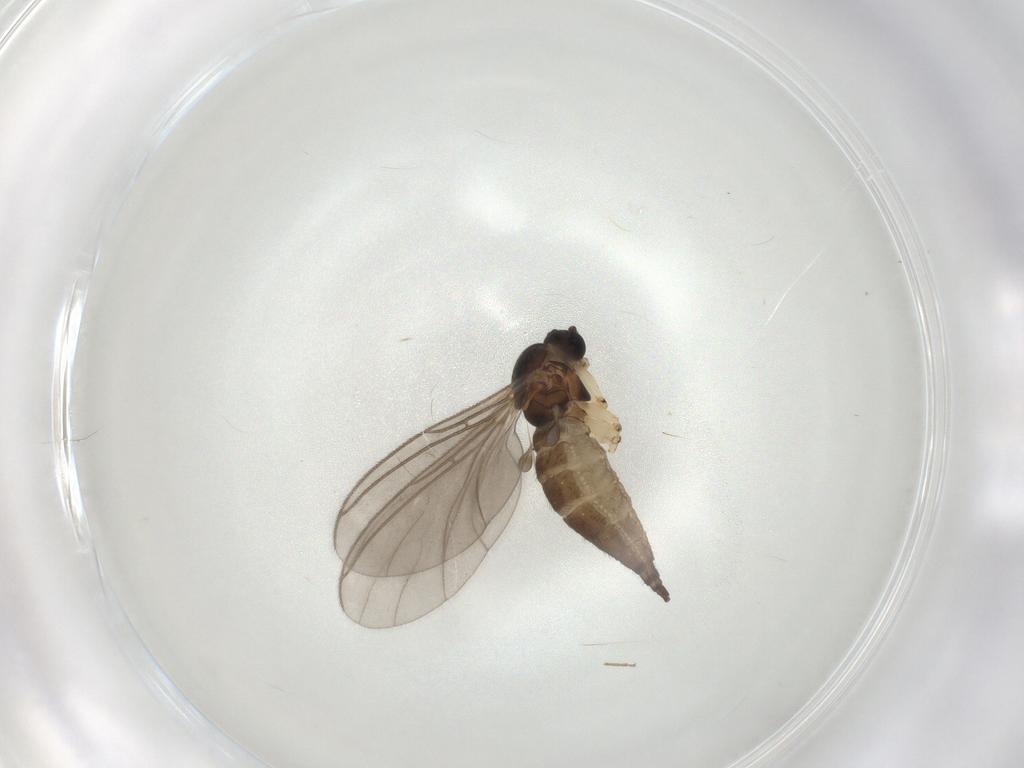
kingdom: Animalia
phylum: Arthropoda
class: Insecta
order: Diptera
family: Sciaridae
